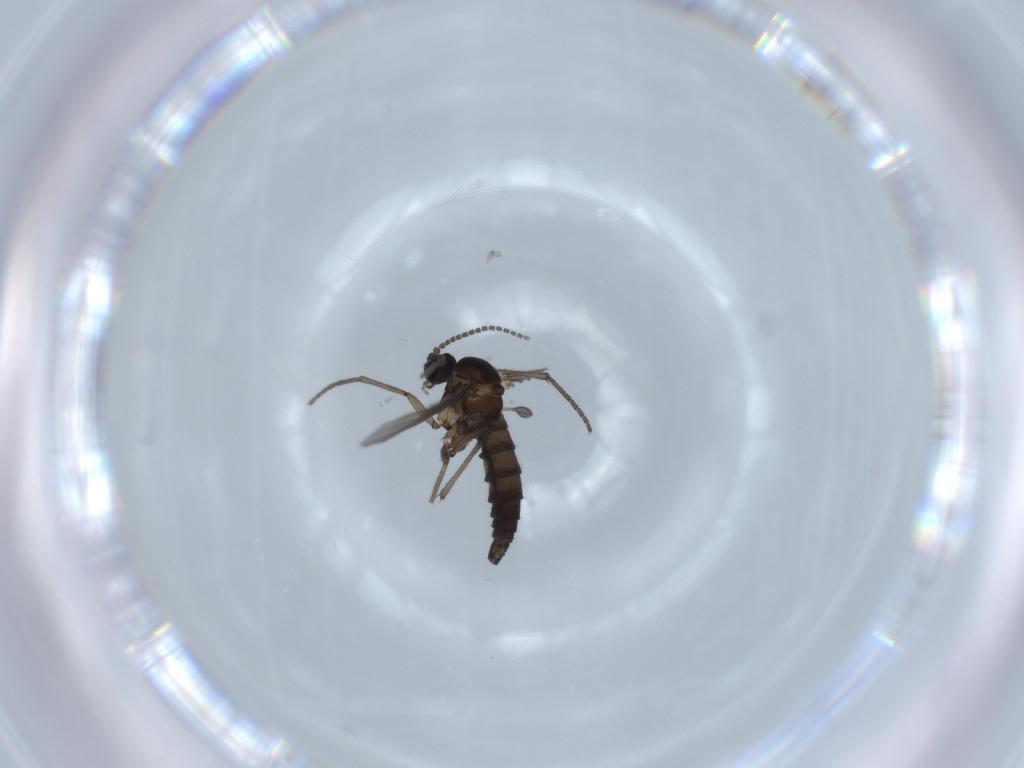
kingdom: Animalia
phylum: Arthropoda
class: Insecta
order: Diptera
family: Sciaridae
